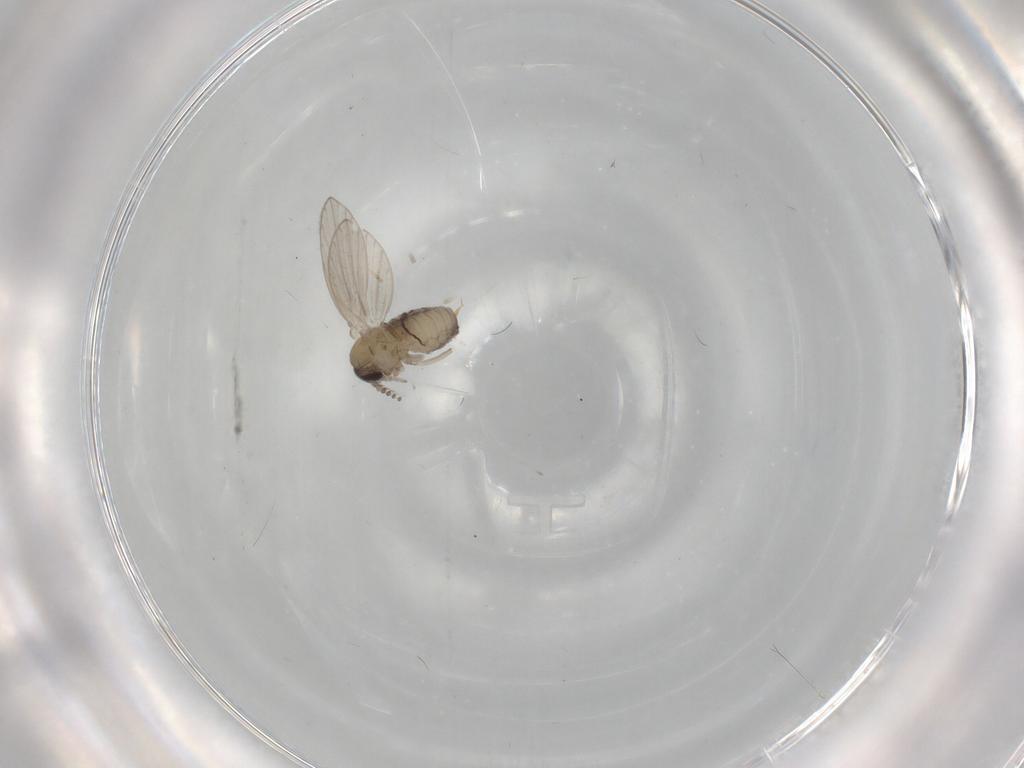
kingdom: Animalia
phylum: Arthropoda
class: Insecta
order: Diptera
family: Psychodidae
